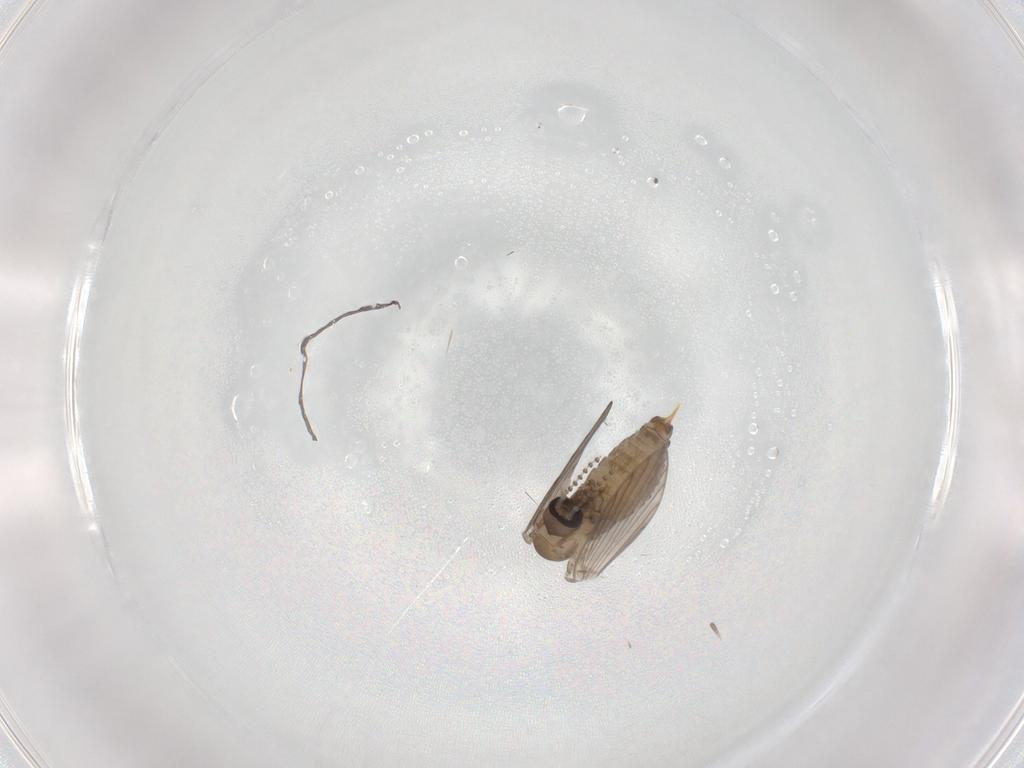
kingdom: Animalia
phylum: Arthropoda
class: Insecta
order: Diptera
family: Psychodidae
